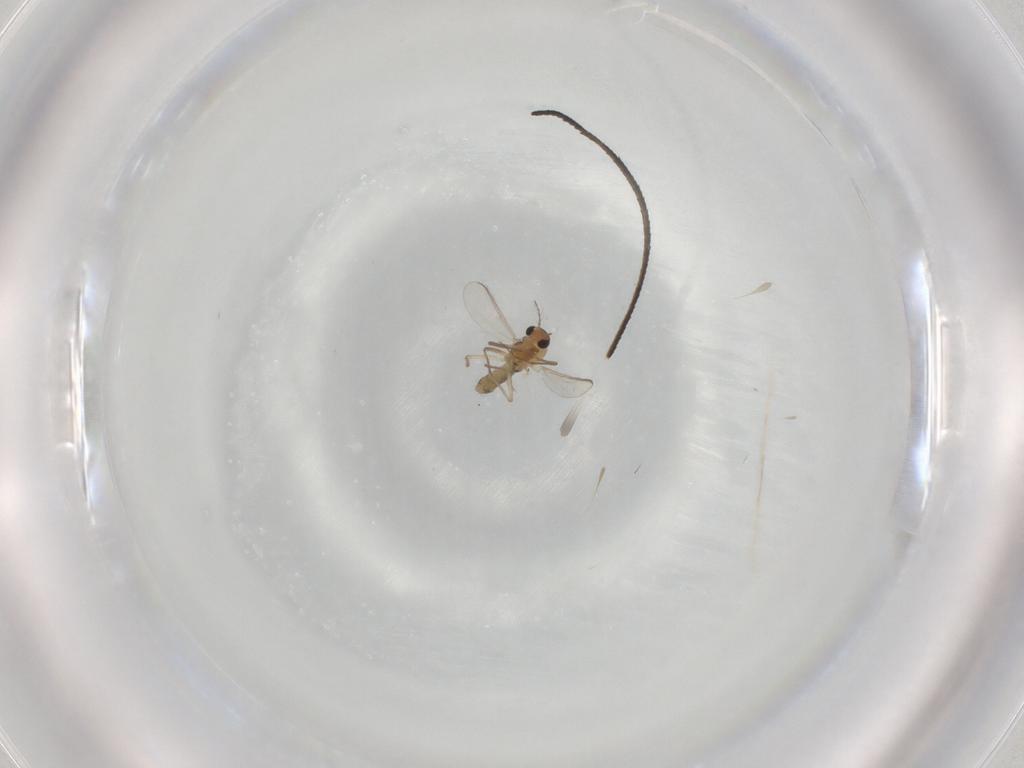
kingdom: Animalia
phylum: Arthropoda
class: Insecta
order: Diptera
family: Chironomidae
